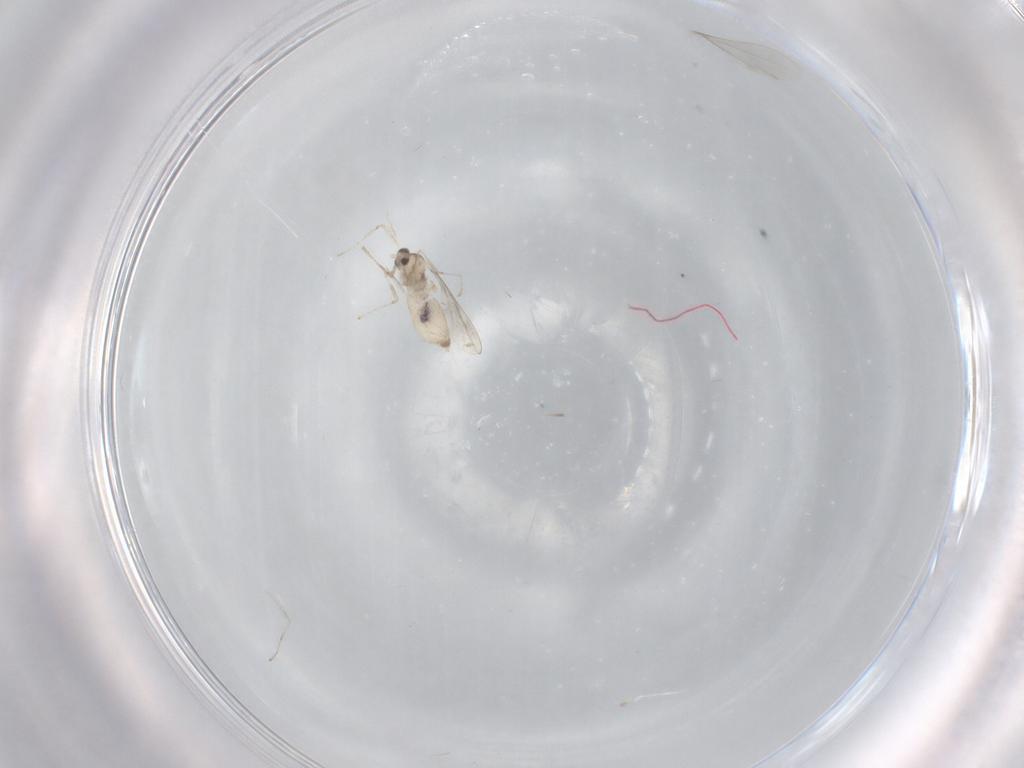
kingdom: Animalia
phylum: Arthropoda
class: Insecta
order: Diptera
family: Cecidomyiidae
